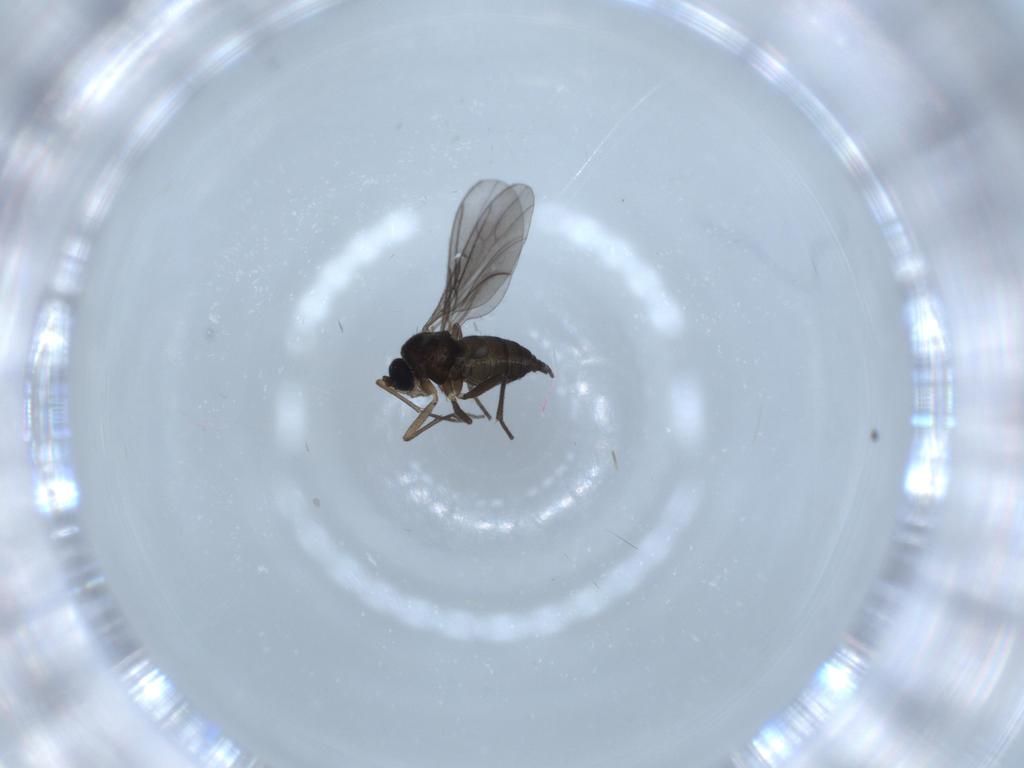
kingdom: Animalia
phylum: Arthropoda
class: Insecta
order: Diptera
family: Sciaridae
